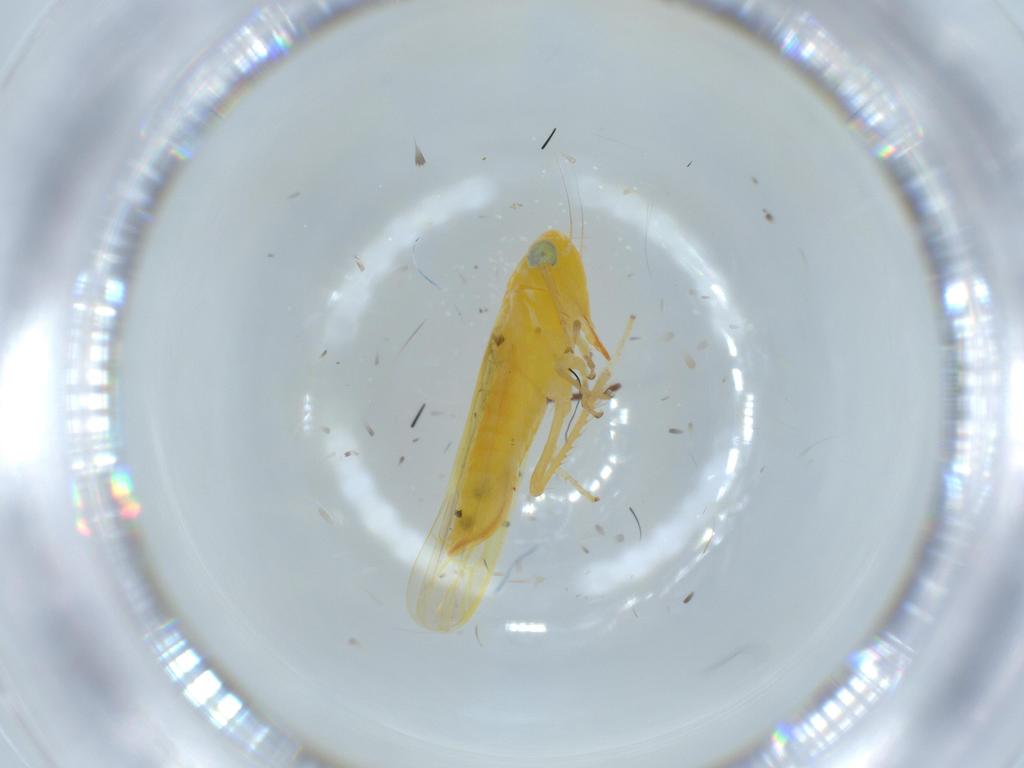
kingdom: Animalia
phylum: Arthropoda
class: Insecta
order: Hemiptera
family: Cicadellidae
